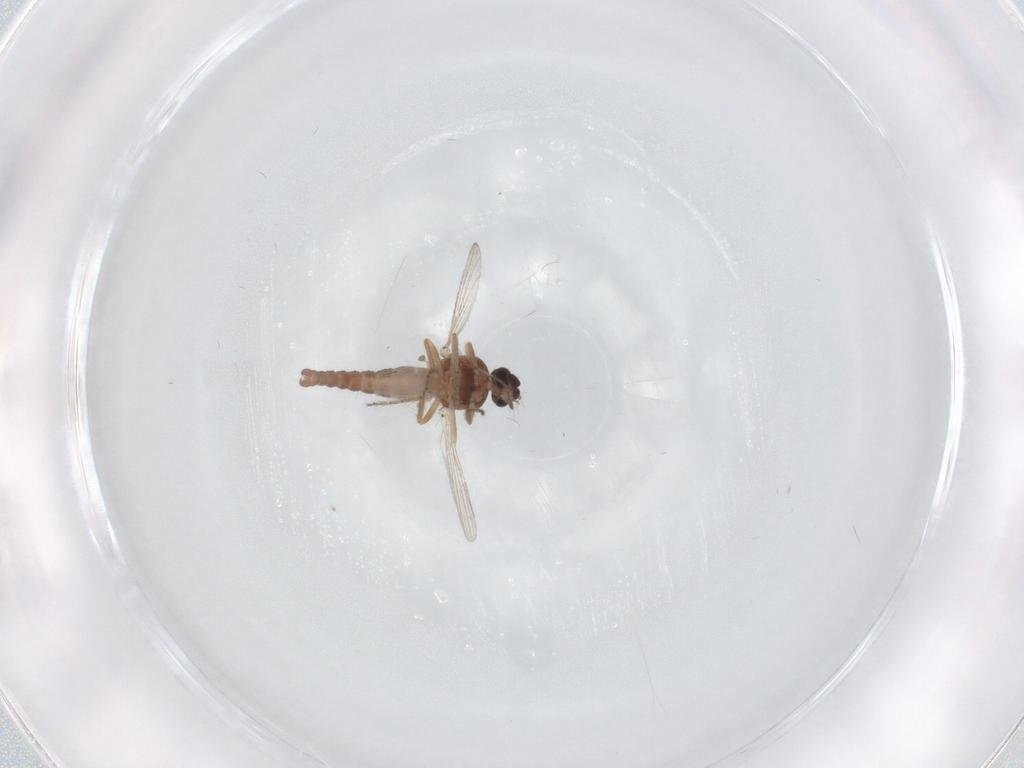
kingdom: Animalia
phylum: Arthropoda
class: Insecta
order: Diptera
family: Ceratopogonidae
